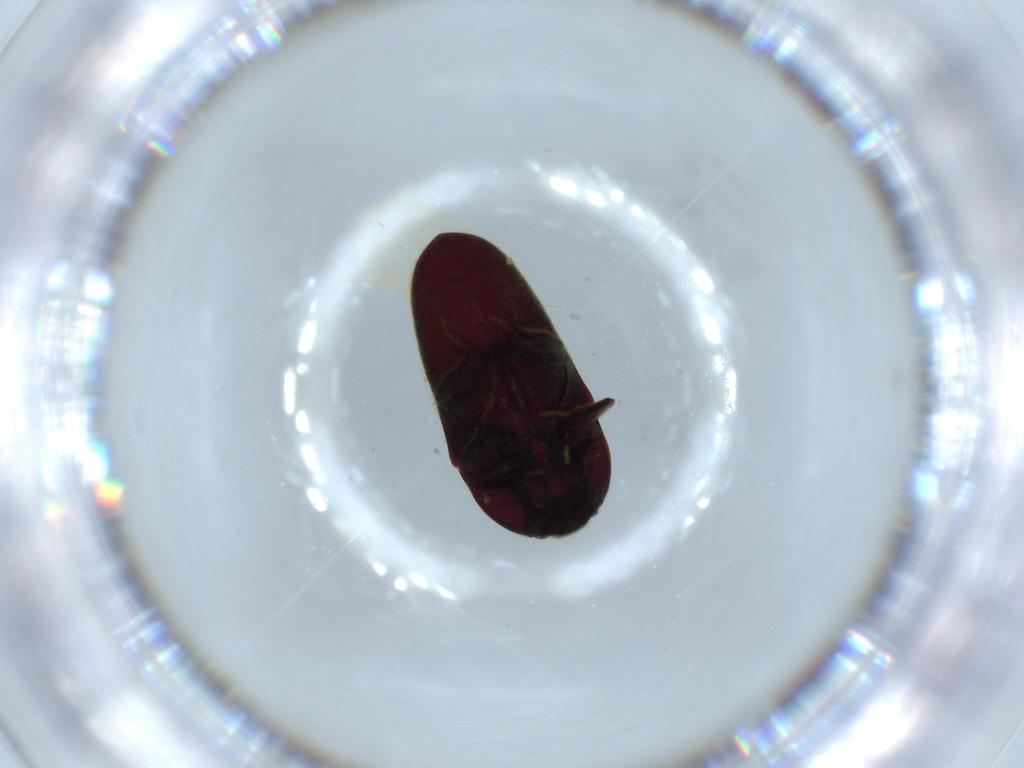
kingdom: Animalia
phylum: Arthropoda
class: Insecta
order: Coleoptera
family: Throscidae
